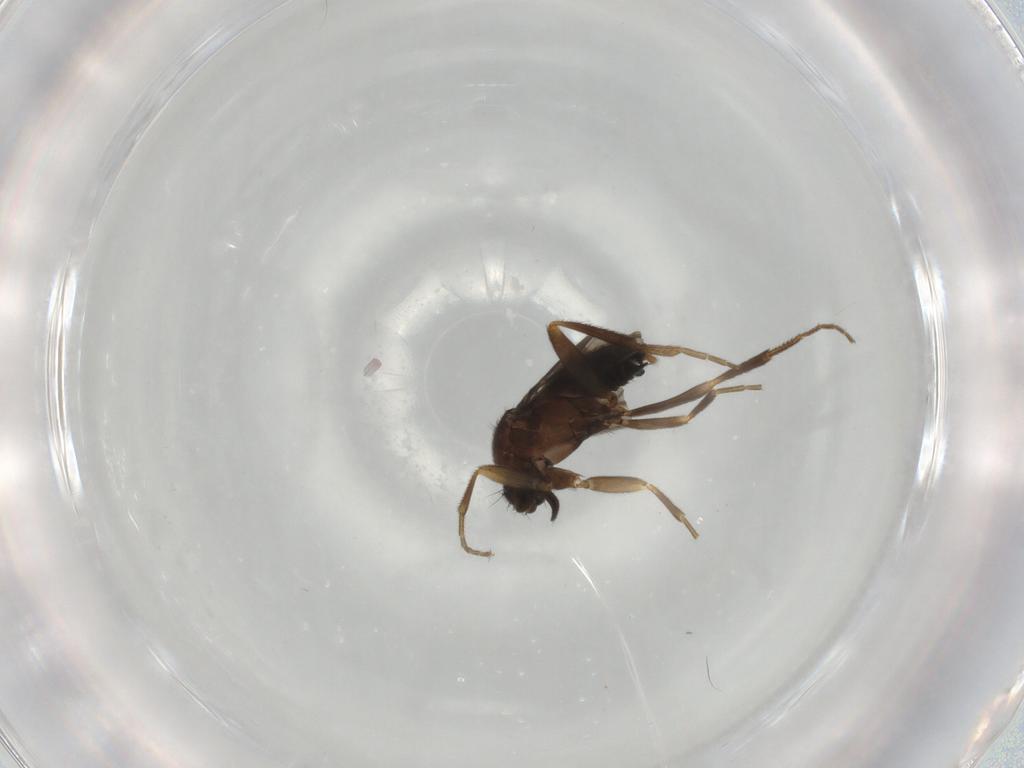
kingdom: Animalia
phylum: Arthropoda
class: Insecta
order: Diptera
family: Phoridae
